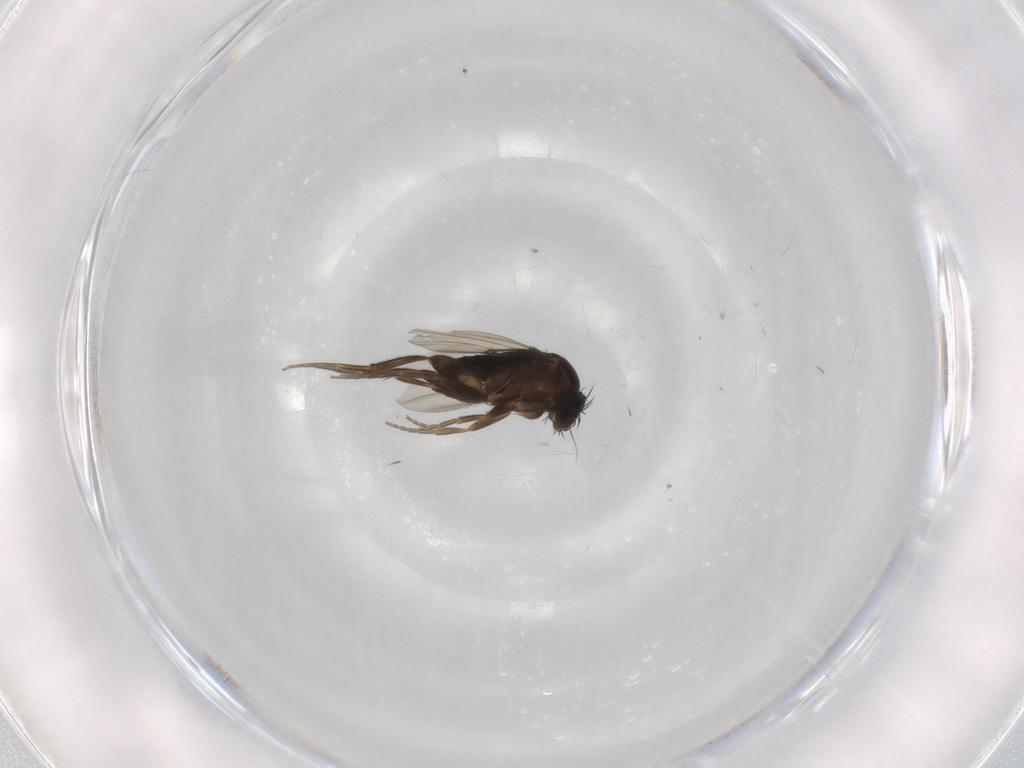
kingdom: Animalia
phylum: Arthropoda
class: Insecta
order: Diptera
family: Phoridae
